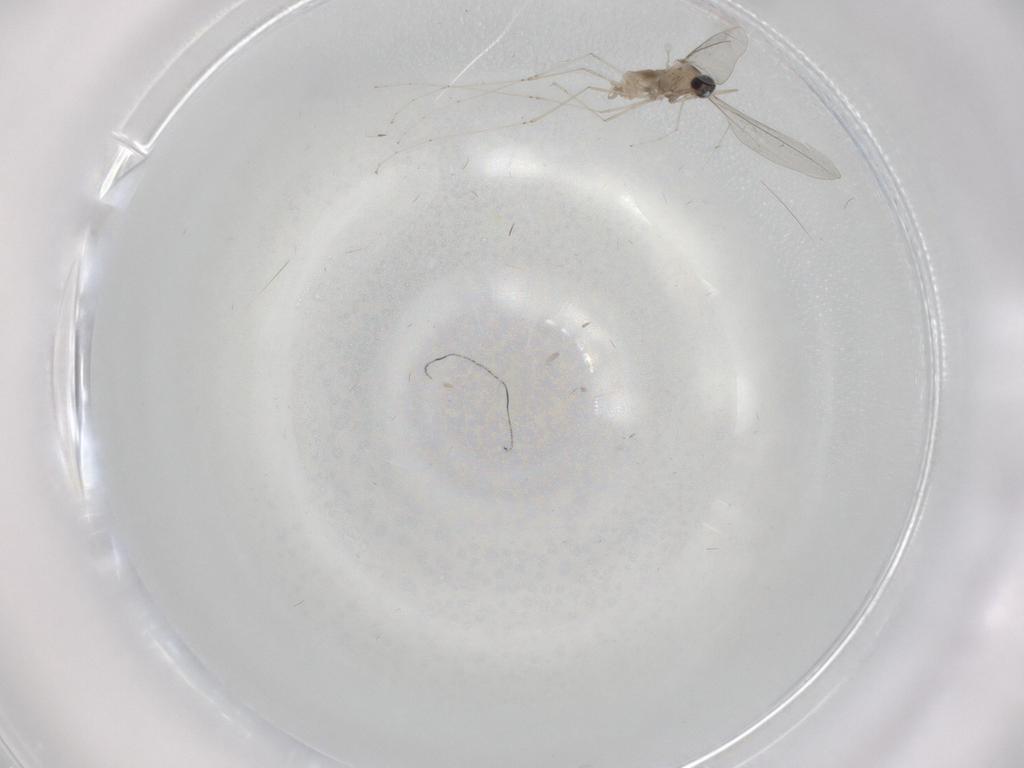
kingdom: Animalia
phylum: Arthropoda
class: Insecta
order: Diptera
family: Cecidomyiidae
